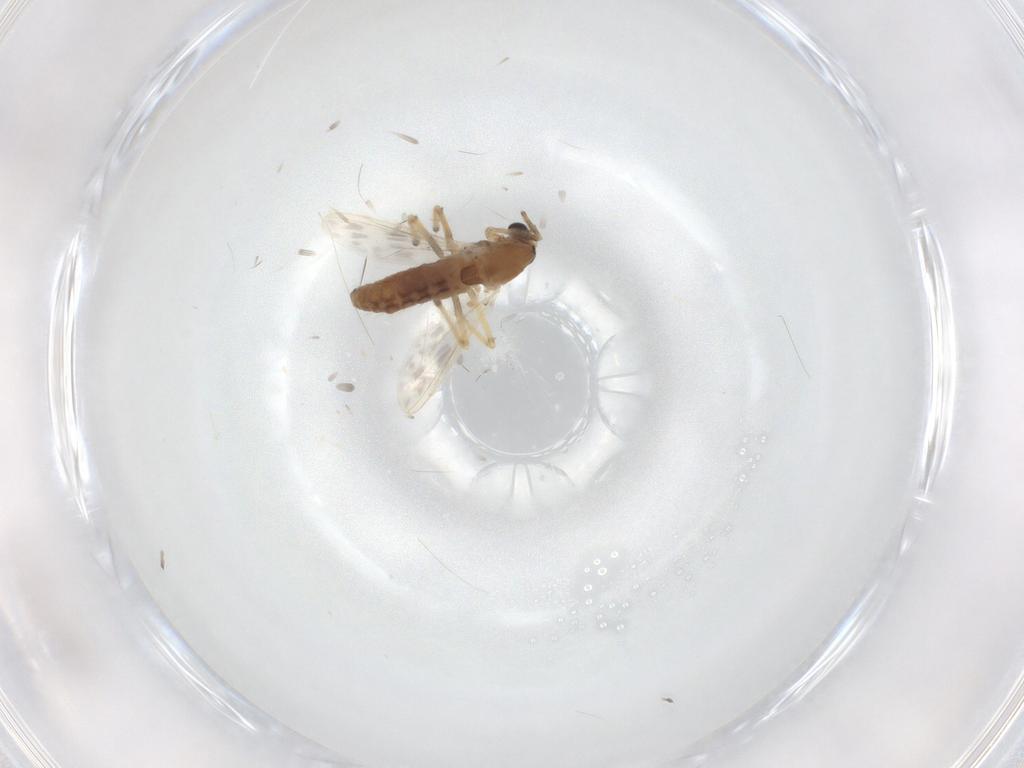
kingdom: Animalia
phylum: Arthropoda
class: Insecta
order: Diptera
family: Chironomidae
